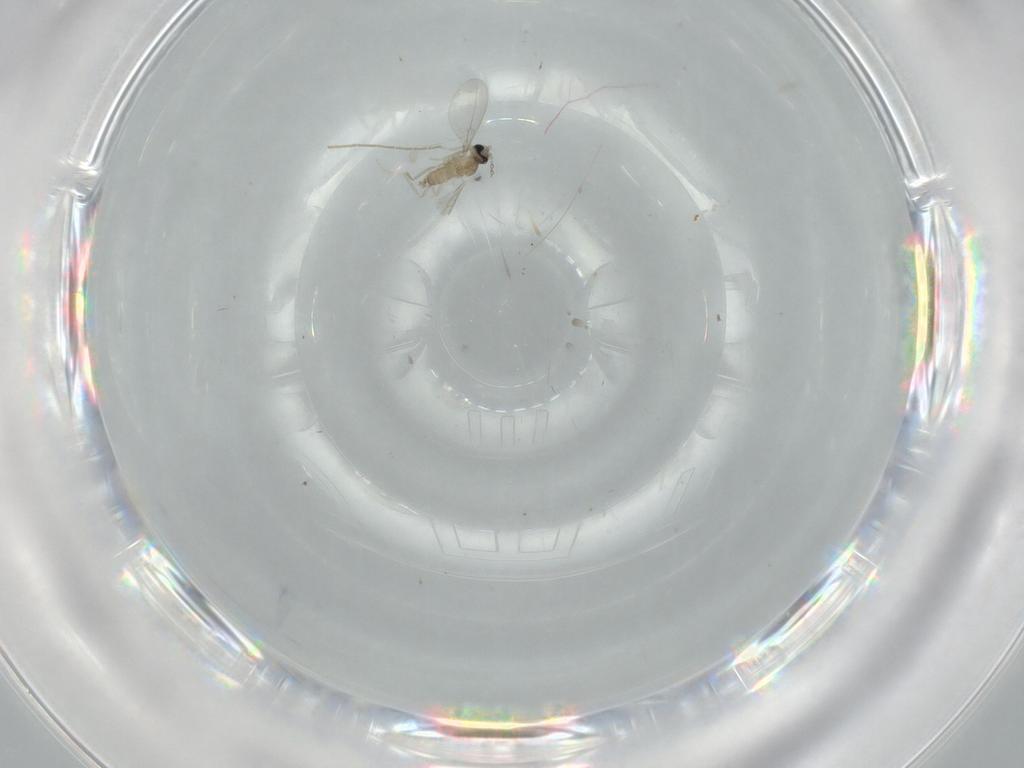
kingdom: Animalia
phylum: Arthropoda
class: Insecta
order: Diptera
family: Cecidomyiidae
